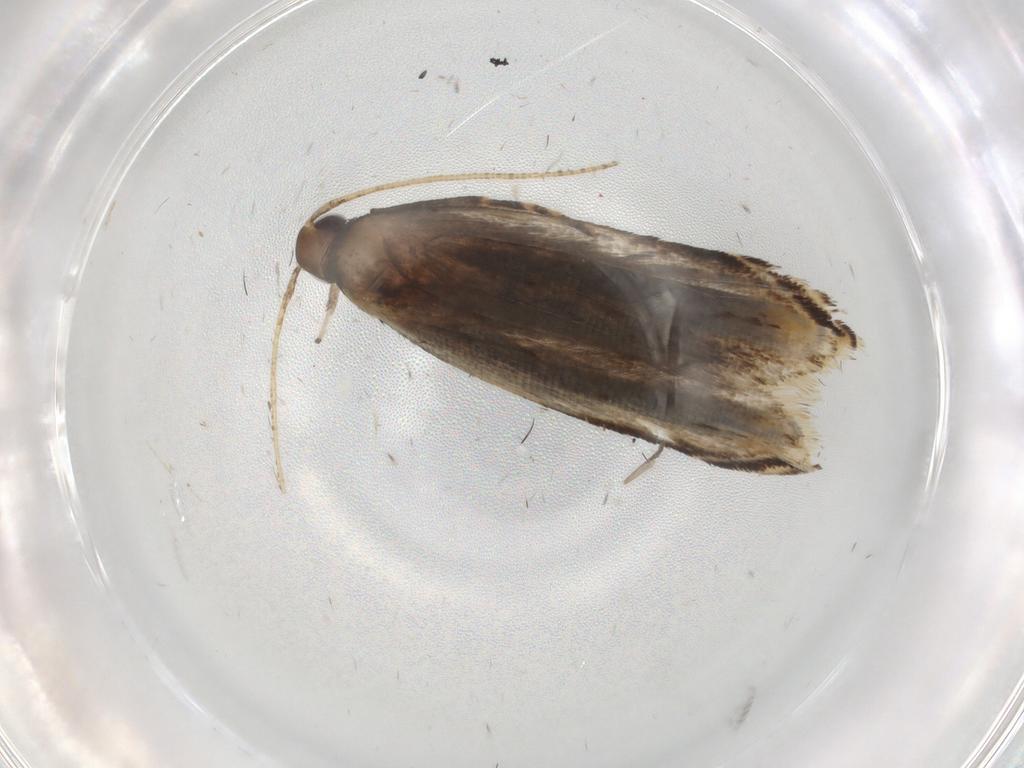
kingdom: Animalia
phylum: Arthropoda
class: Insecta
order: Lepidoptera
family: Gelechiidae
